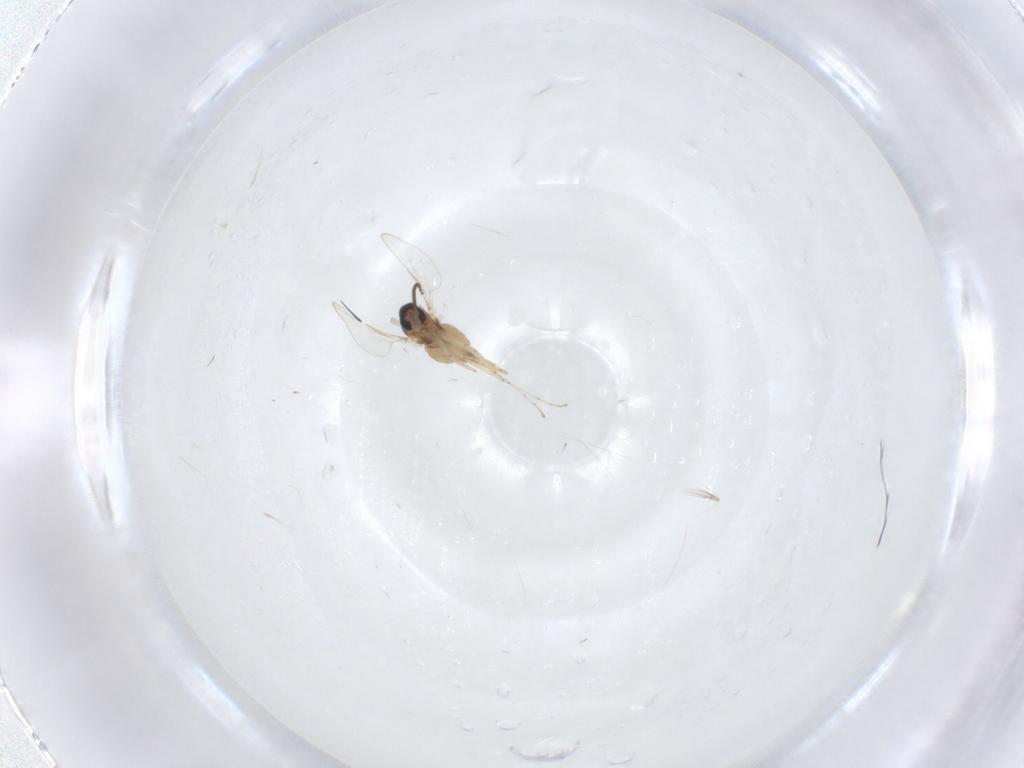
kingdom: Animalia
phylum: Arthropoda
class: Insecta
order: Diptera
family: Cecidomyiidae
